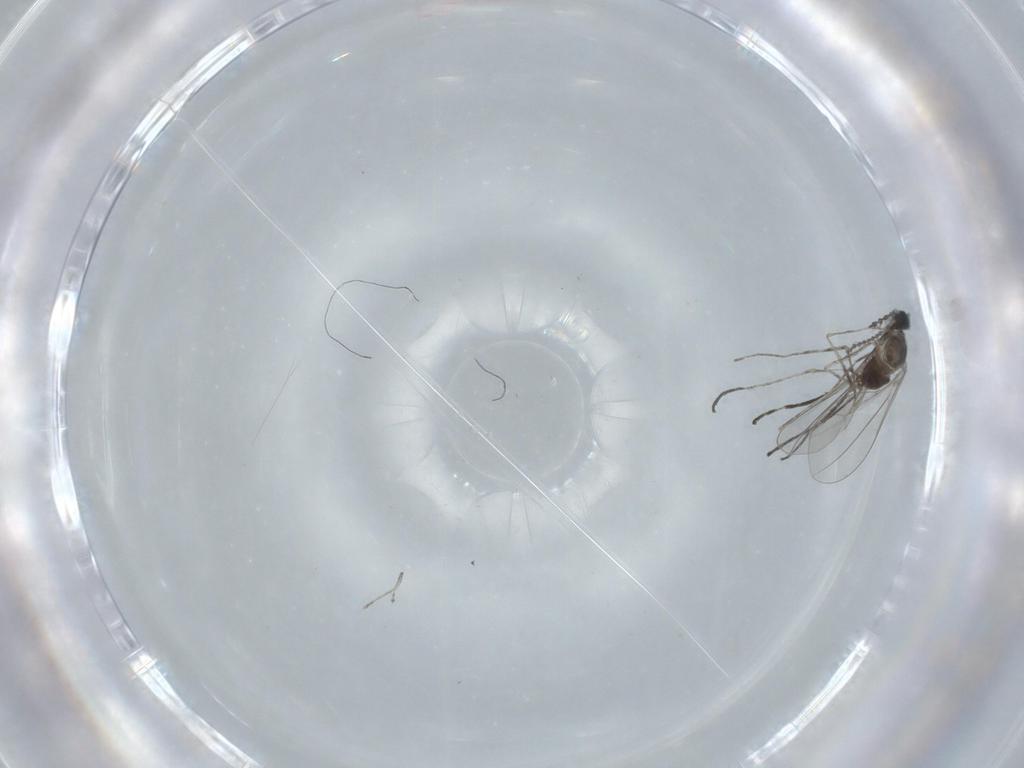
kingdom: Animalia
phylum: Arthropoda
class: Insecta
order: Diptera
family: Cecidomyiidae
